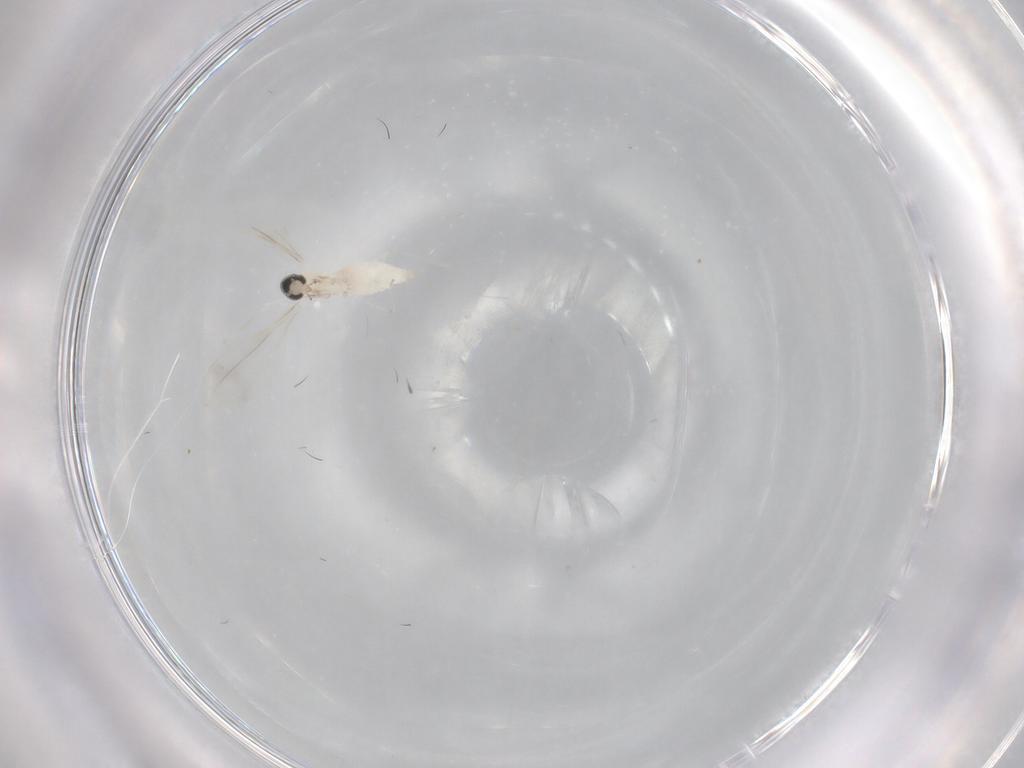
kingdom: Animalia
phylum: Arthropoda
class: Insecta
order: Diptera
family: Cecidomyiidae
